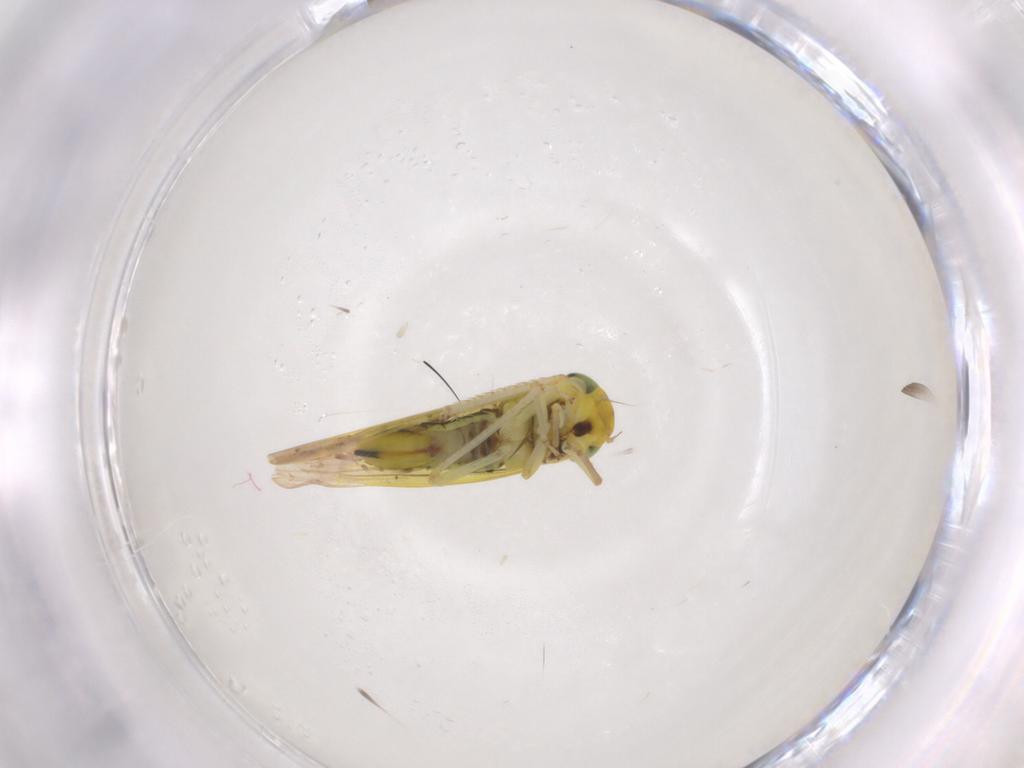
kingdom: Animalia
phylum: Arthropoda
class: Insecta
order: Hemiptera
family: Cicadellidae
